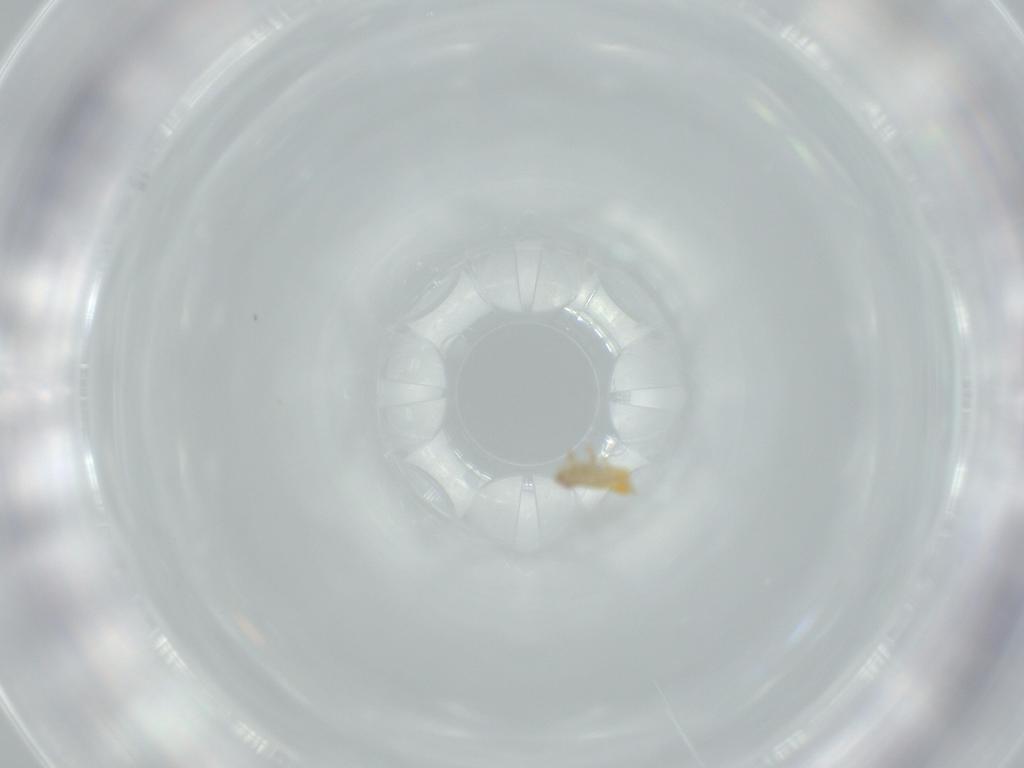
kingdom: Animalia
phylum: Arthropoda
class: Insecta
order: Hemiptera
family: Delphacidae
